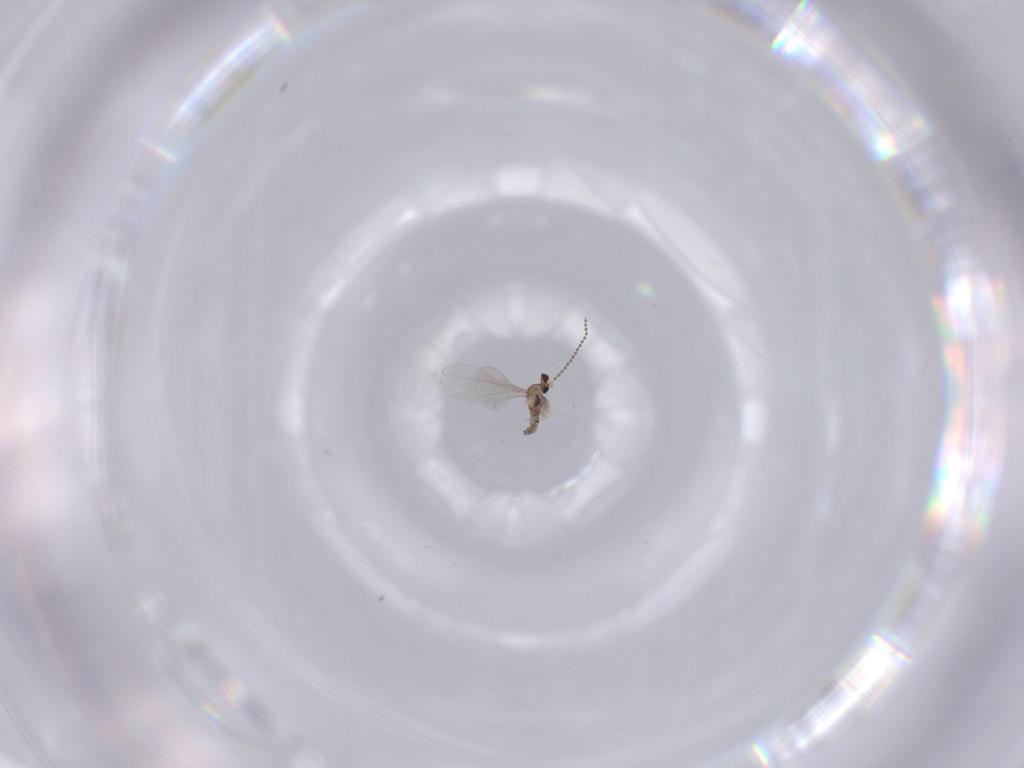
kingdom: Animalia
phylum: Arthropoda
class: Insecta
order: Diptera
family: Cecidomyiidae
